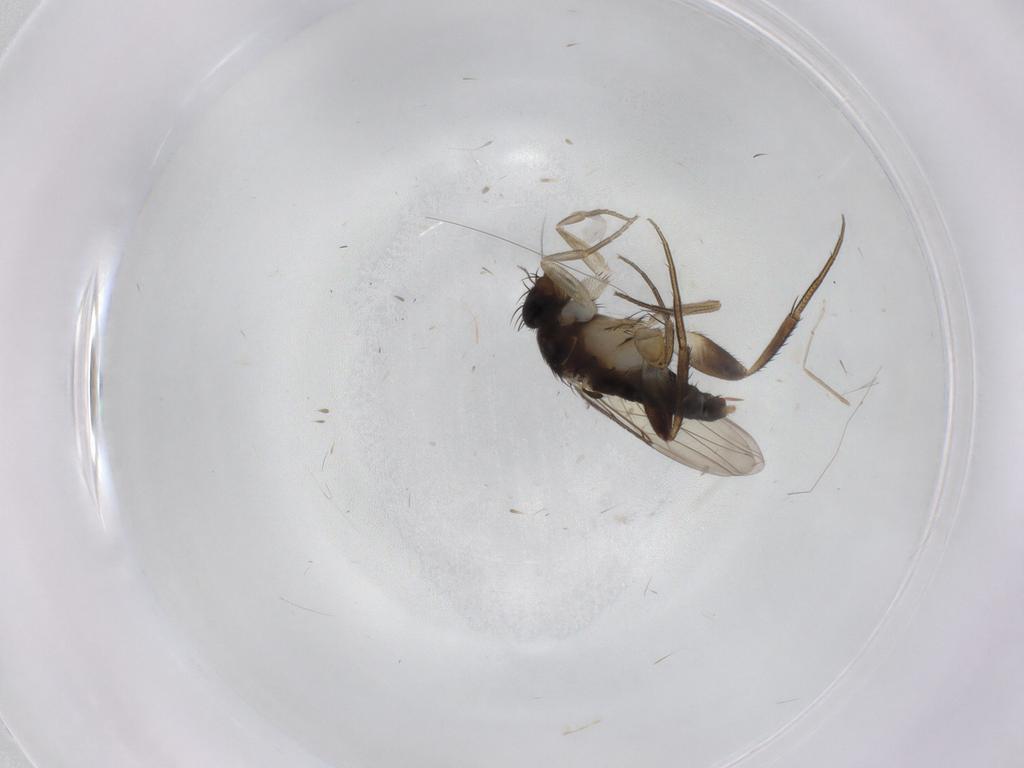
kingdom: Animalia
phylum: Arthropoda
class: Insecta
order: Diptera
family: Phoridae
